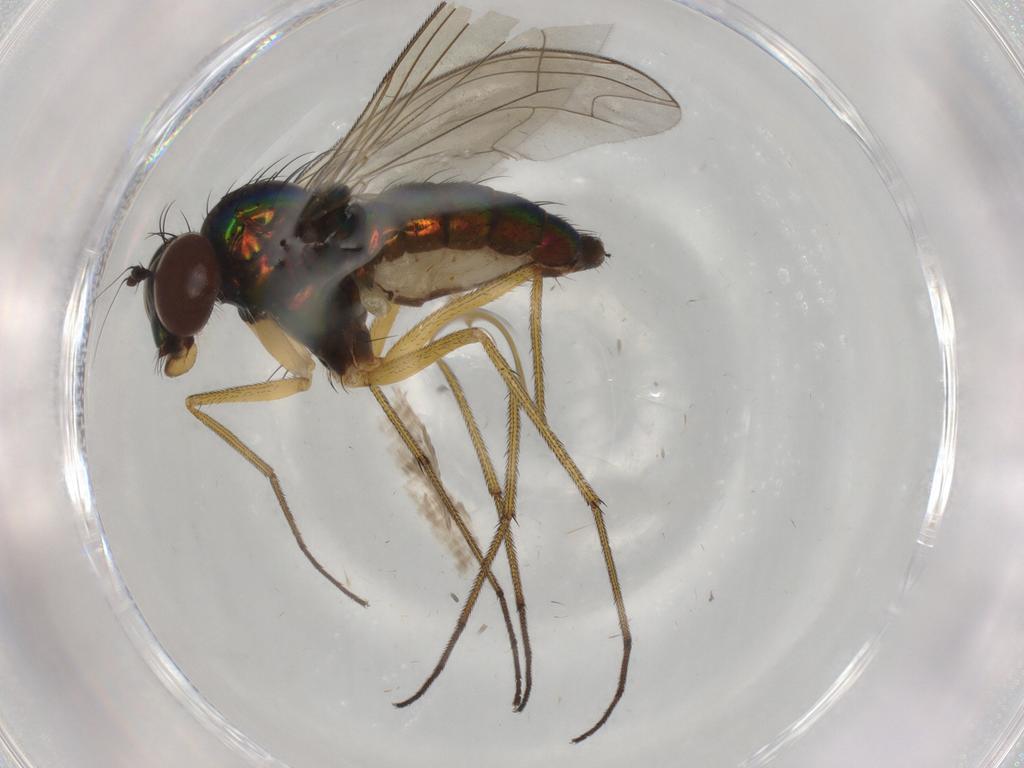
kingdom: Animalia
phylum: Arthropoda
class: Insecta
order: Diptera
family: Dolichopodidae
